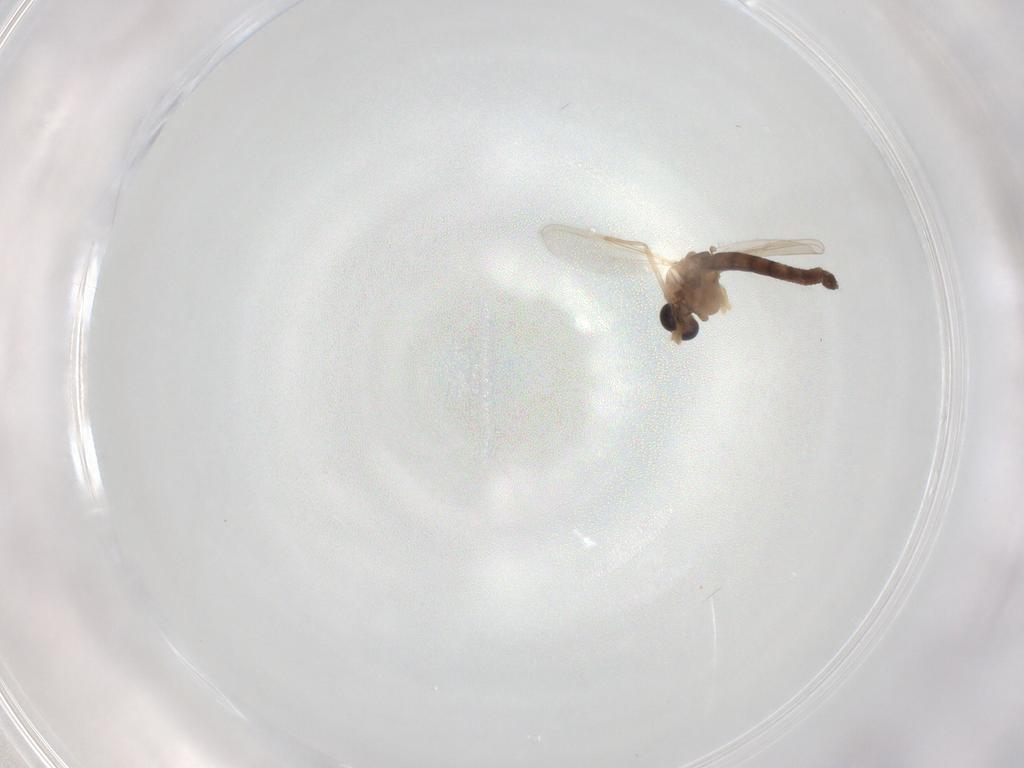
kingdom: Animalia
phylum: Arthropoda
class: Insecta
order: Diptera
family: Chironomidae
